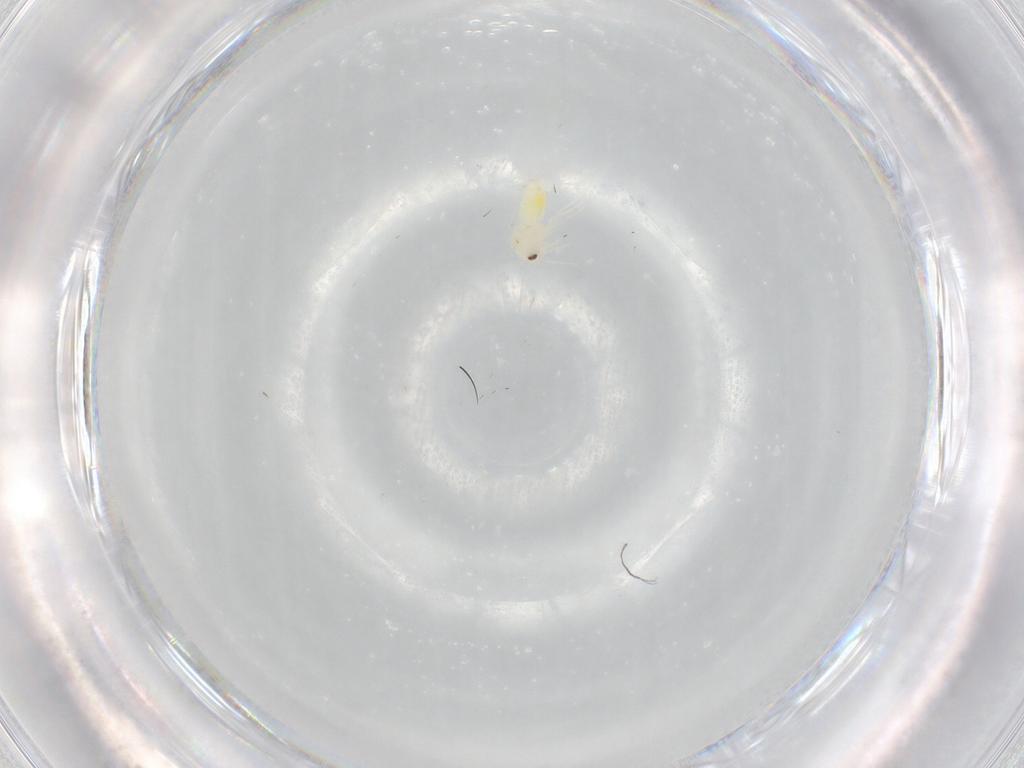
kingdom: Animalia
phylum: Arthropoda
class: Insecta
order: Hemiptera
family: Aleyrodidae
